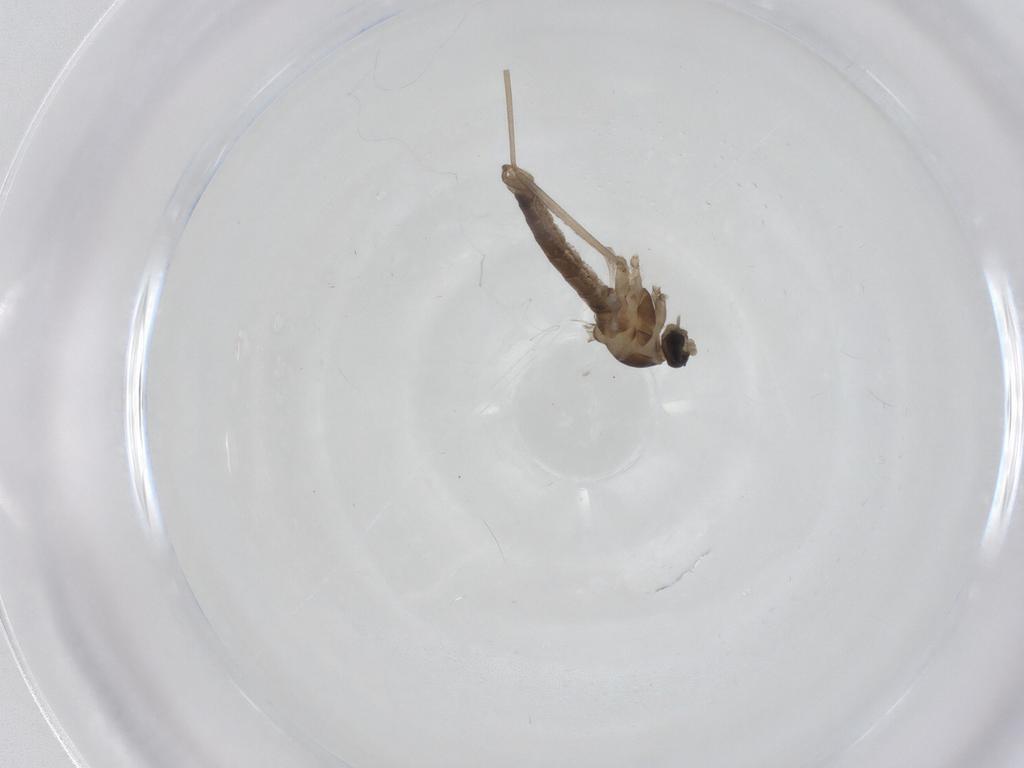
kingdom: Animalia
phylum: Arthropoda
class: Insecta
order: Diptera
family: Cecidomyiidae
